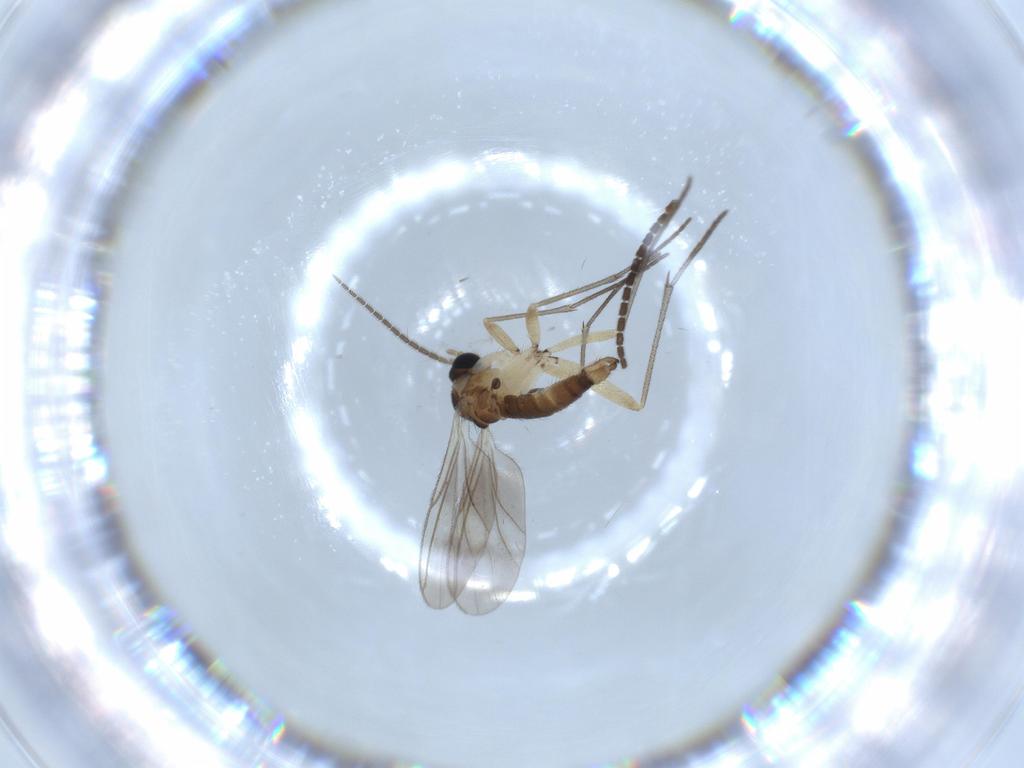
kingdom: Animalia
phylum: Arthropoda
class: Insecta
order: Diptera
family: Sciaridae
